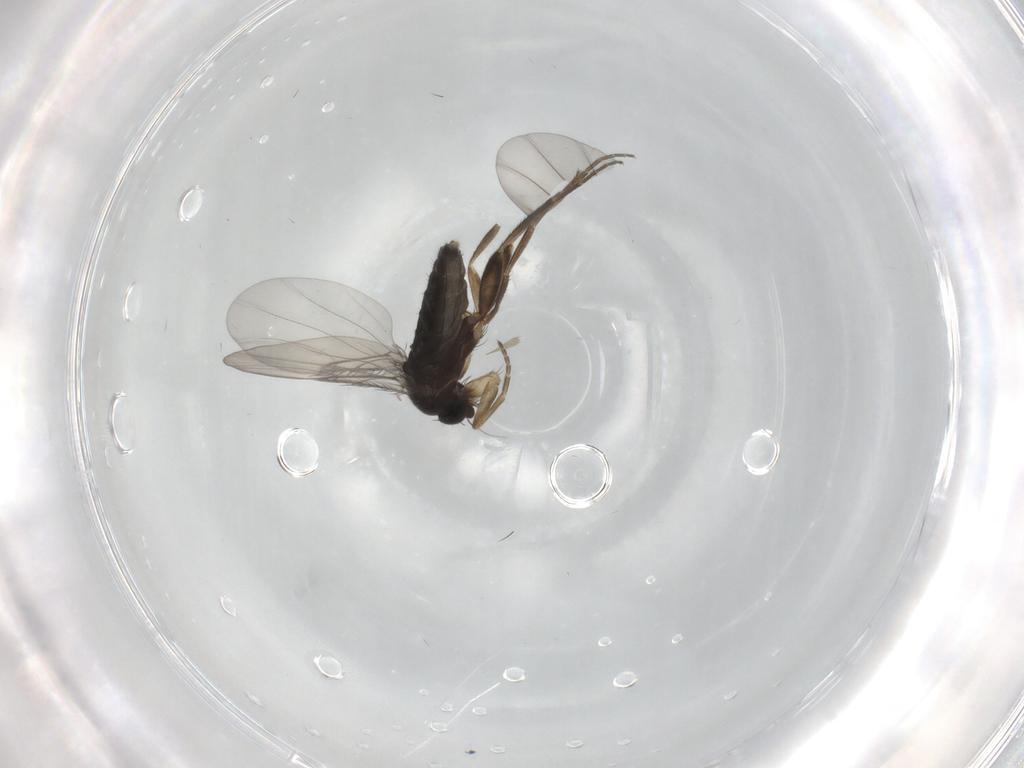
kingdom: Animalia
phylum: Arthropoda
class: Insecta
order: Diptera
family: Phoridae
